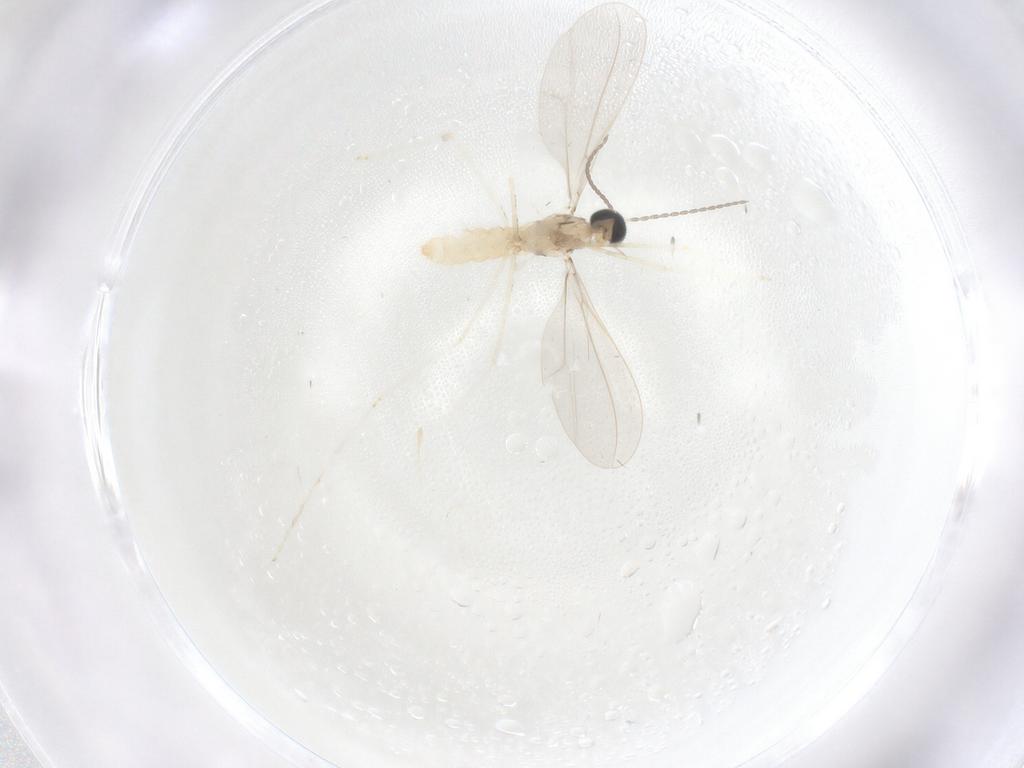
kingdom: Animalia
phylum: Arthropoda
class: Insecta
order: Diptera
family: Cecidomyiidae
